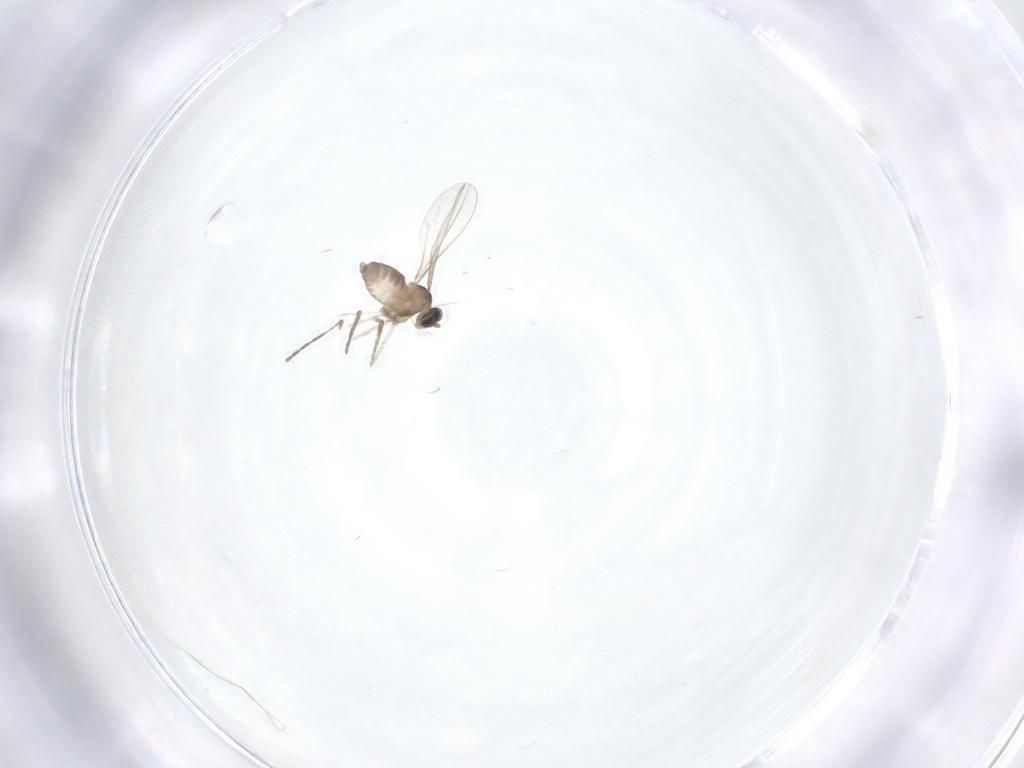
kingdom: Animalia
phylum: Arthropoda
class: Insecta
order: Diptera
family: Chironomidae
